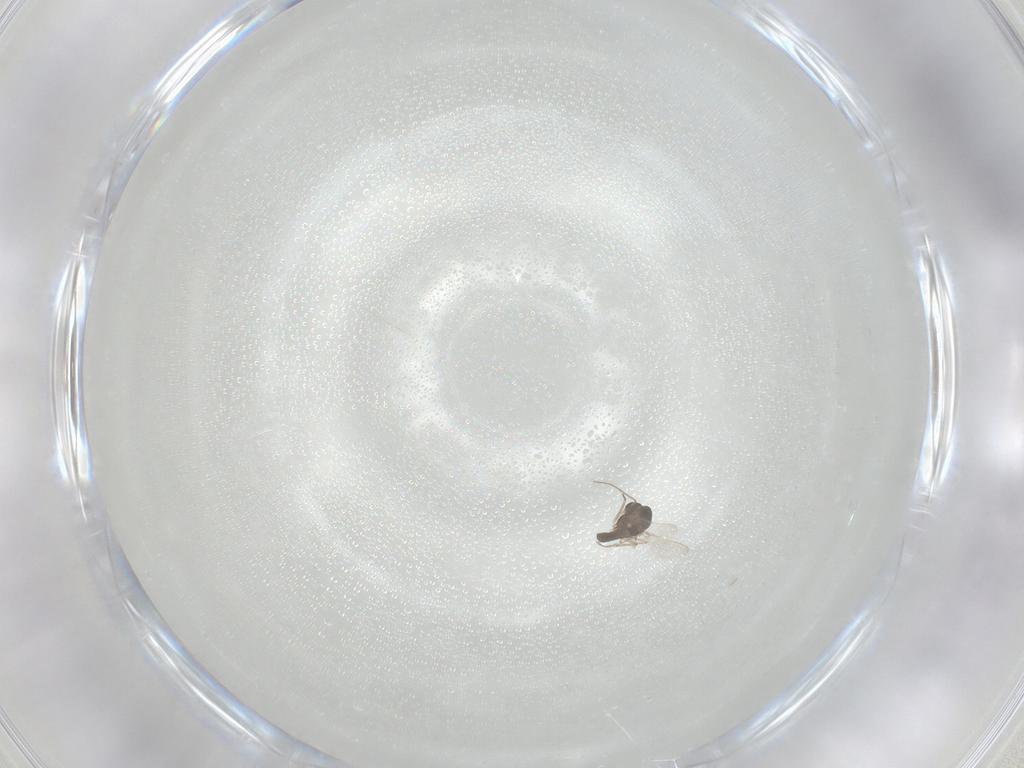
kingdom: Animalia
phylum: Arthropoda
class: Insecta
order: Diptera
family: Chironomidae
